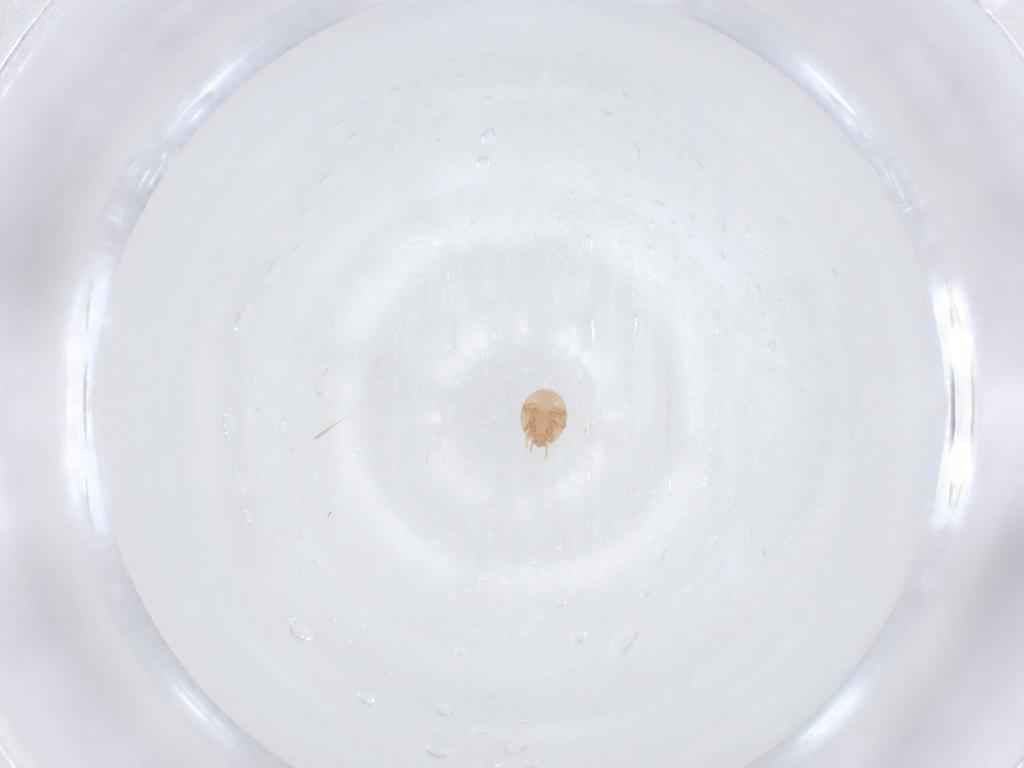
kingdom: Animalia
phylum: Arthropoda
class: Arachnida
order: Mesostigmata
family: Trematuridae
